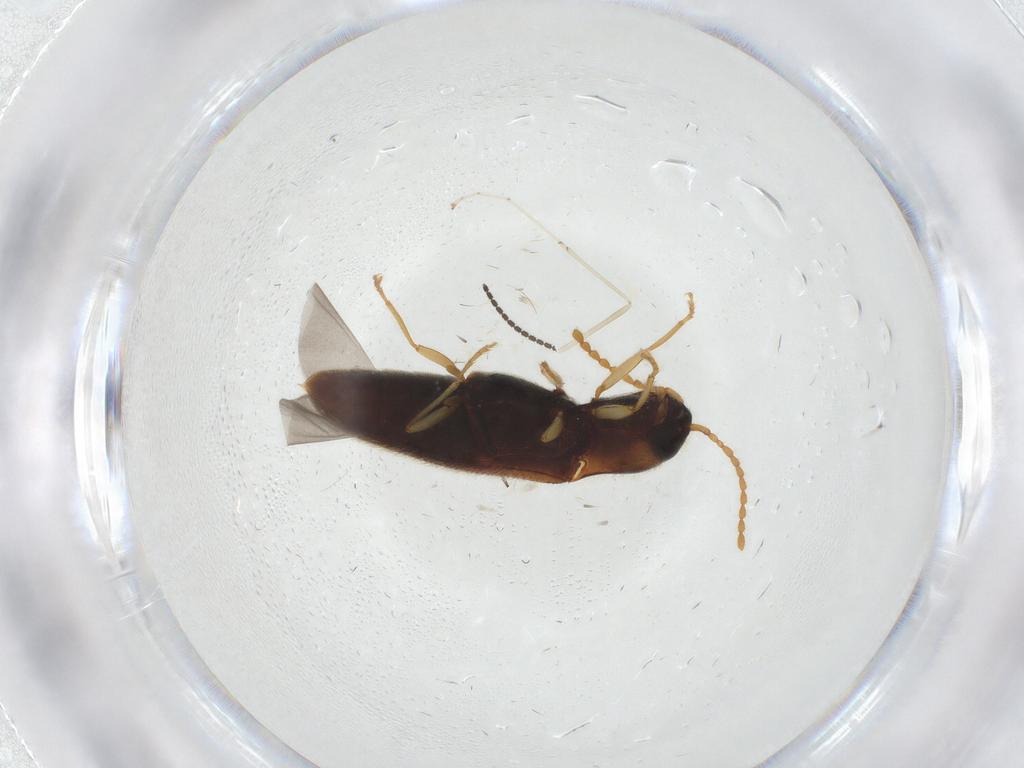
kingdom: Animalia
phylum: Arthropoda
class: Insecta
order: Coleoptera
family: Elateridae
